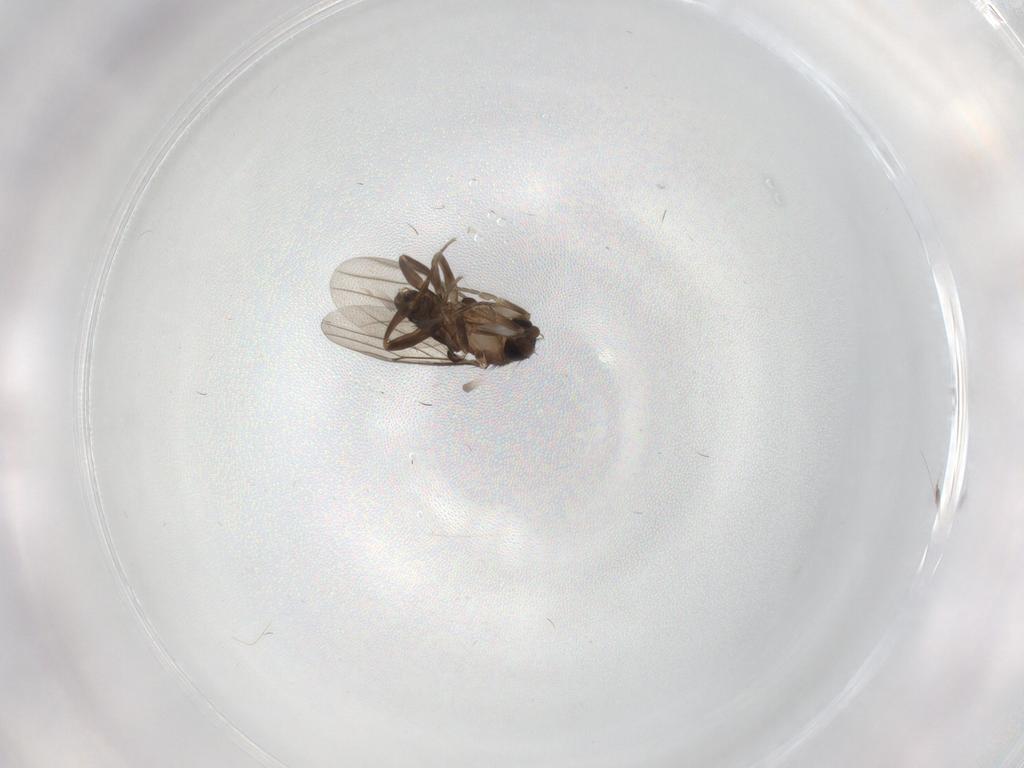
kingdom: Animalia
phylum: Arthropoda
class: Insecta
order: Diptera
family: Phoridae
